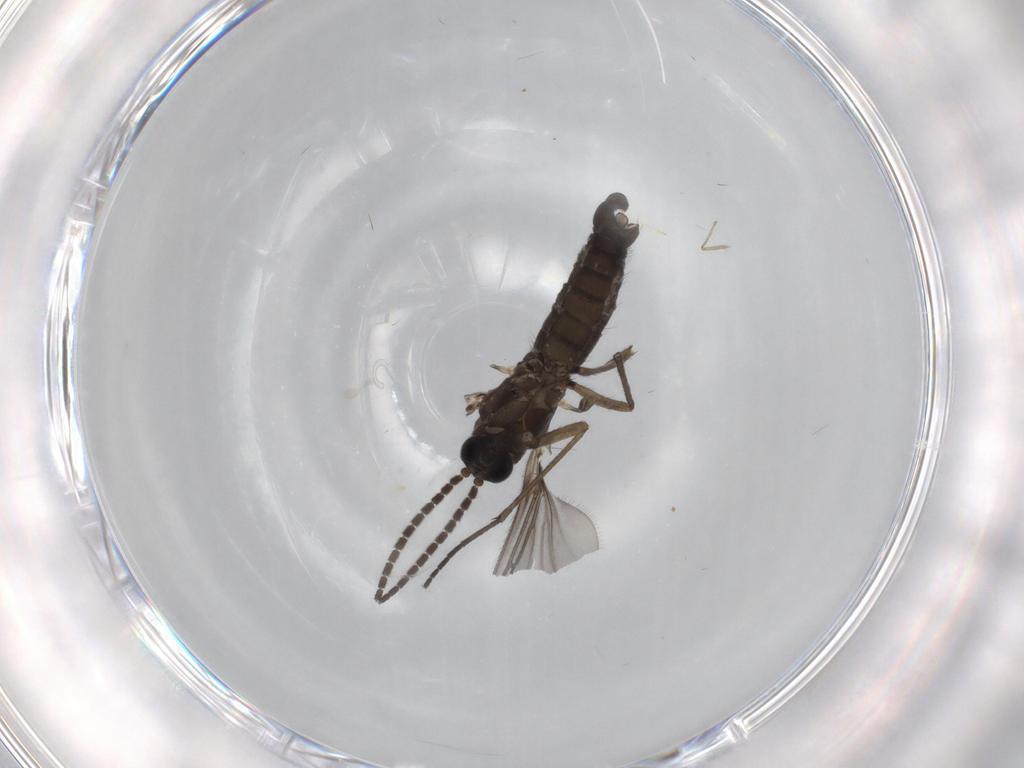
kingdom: Animalia
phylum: Arthropoda
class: Insecta
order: Diptera
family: Sciaridae
